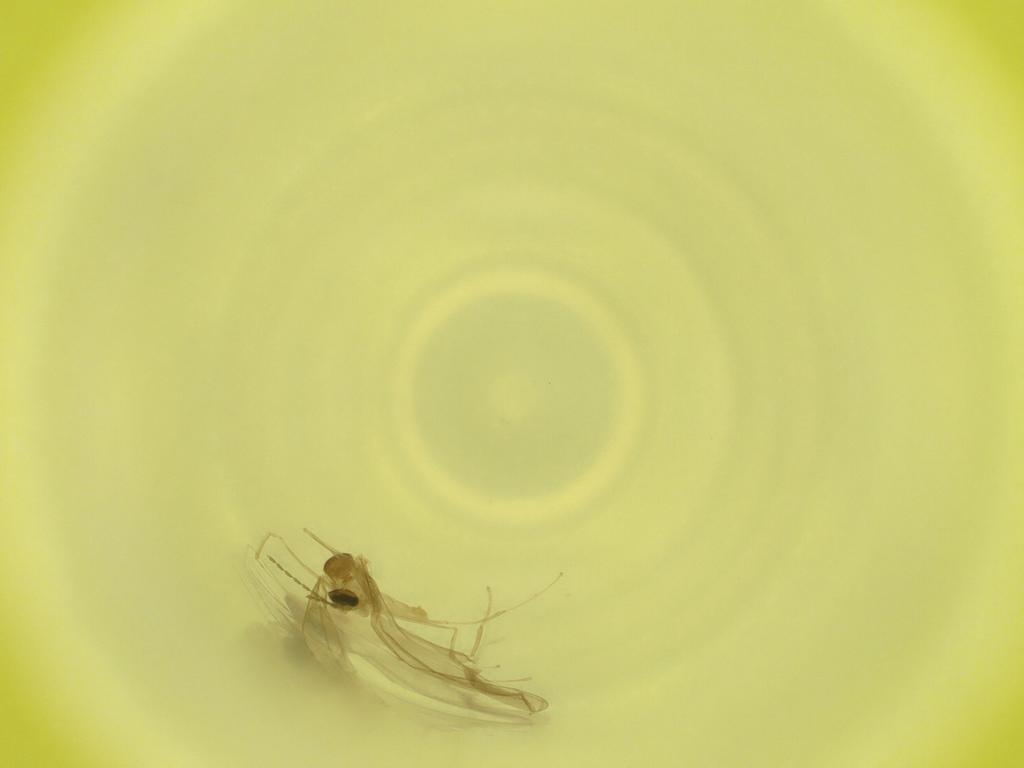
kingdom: Animalia
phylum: Arthropoda
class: Insecta
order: Diptera
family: Cecidomyiidae
